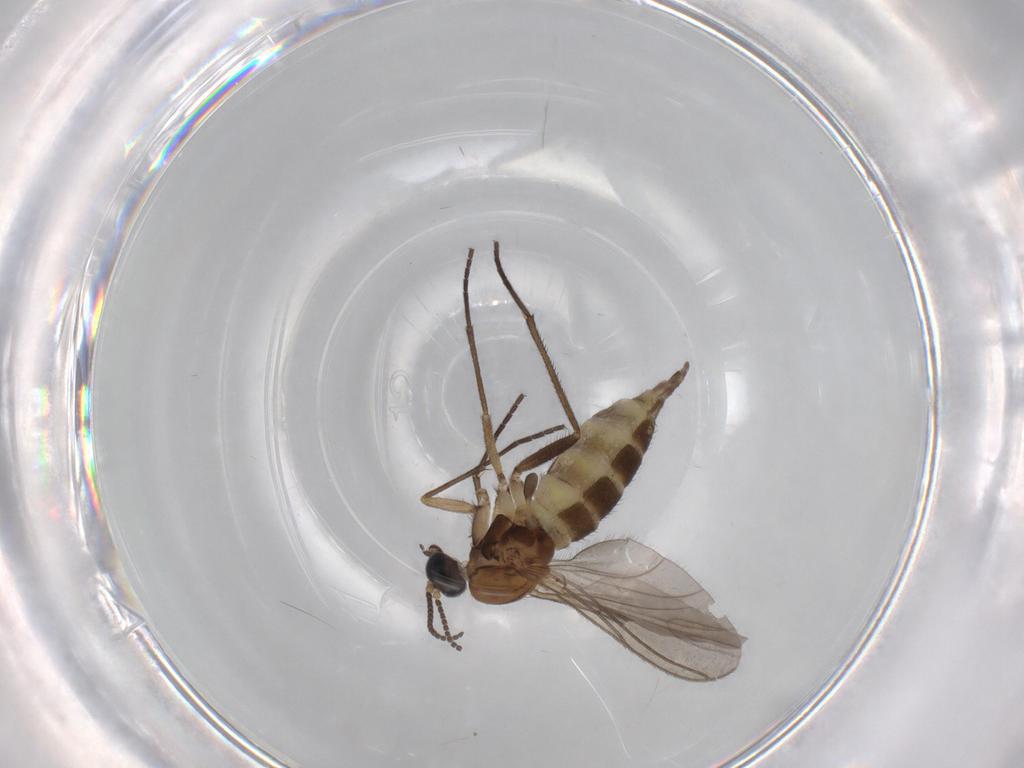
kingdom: Animalia
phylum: Arthropoda
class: Insecta
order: Diptera
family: Sciaridae
